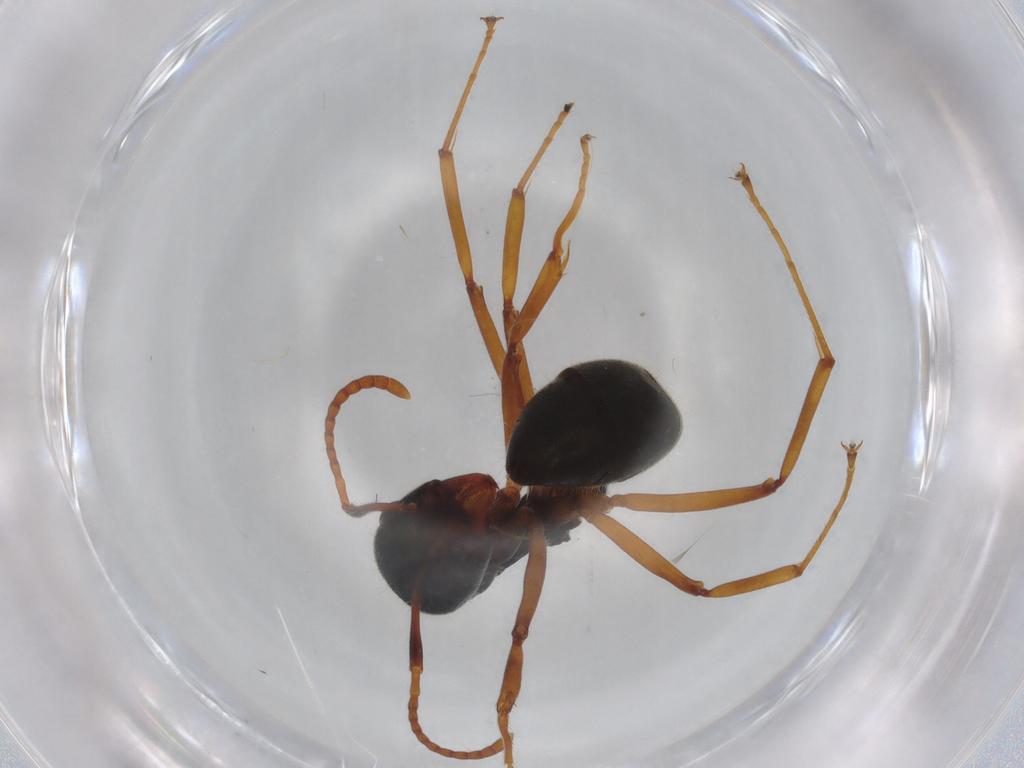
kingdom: Animalia
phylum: Arthropoda
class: Insecta
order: Hymenoptera
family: Formicidae
